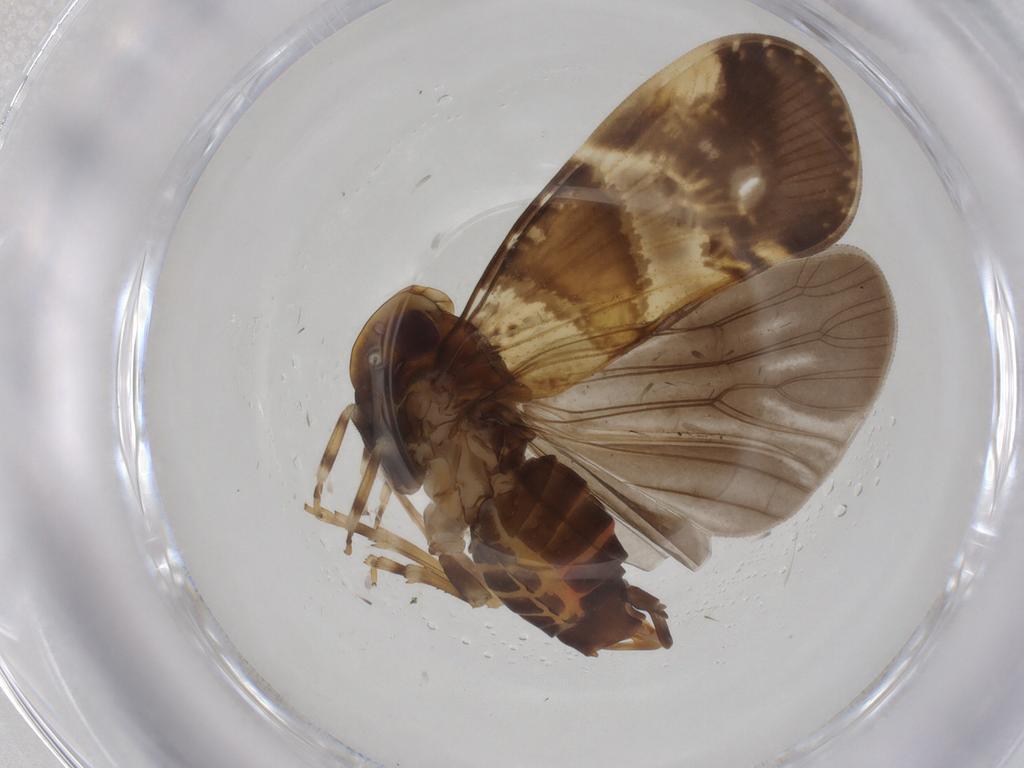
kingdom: Animalia
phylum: Arthropoda
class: Insecta
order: Hemiptera
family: Cixiidae
